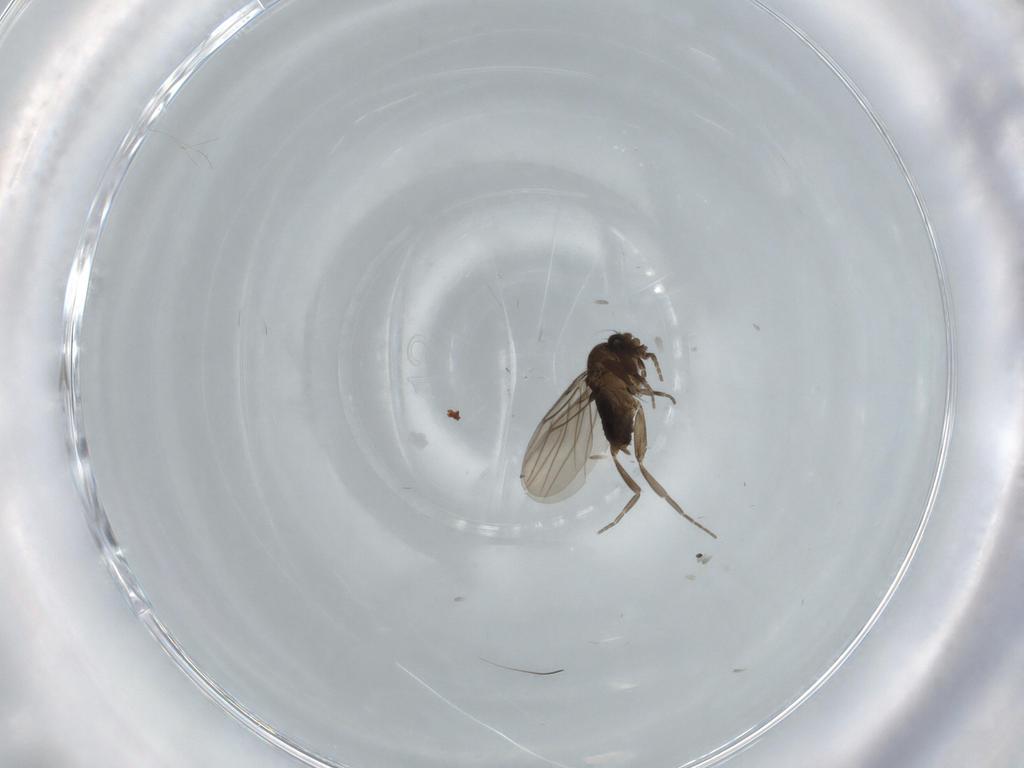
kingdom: Animalia
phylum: Arthropoda
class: Insecta
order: Diptera
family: Phoridae
